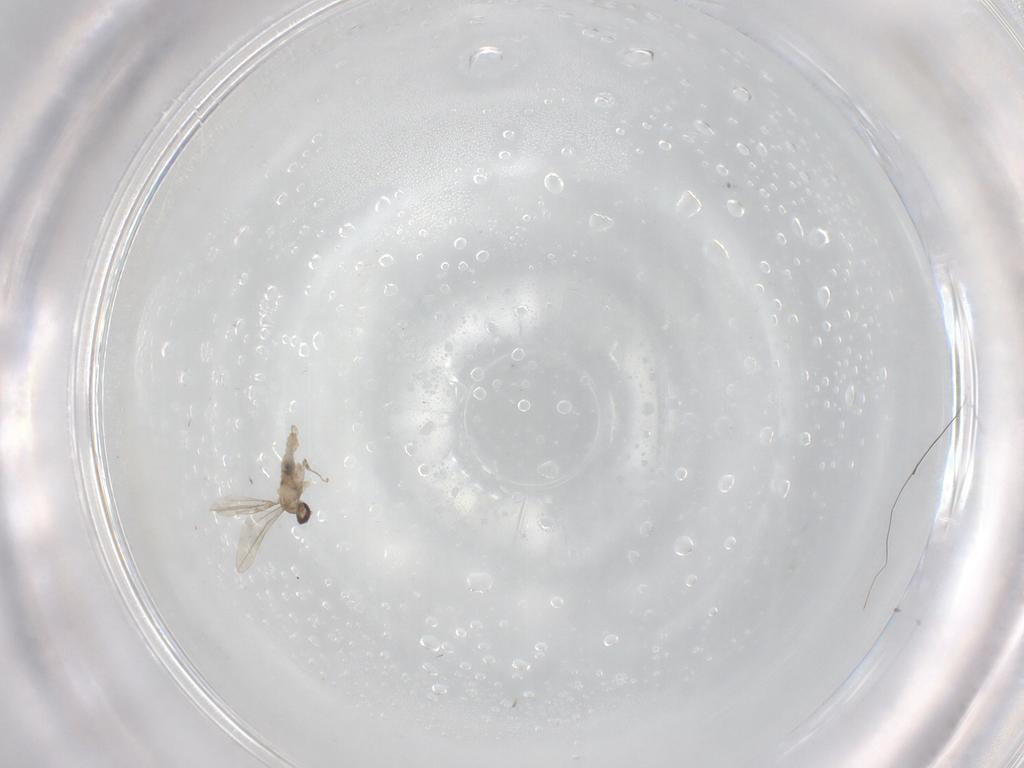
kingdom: Animalia
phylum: Arthropoda
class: Insecta
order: Diptera
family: Cecidomyiidae
